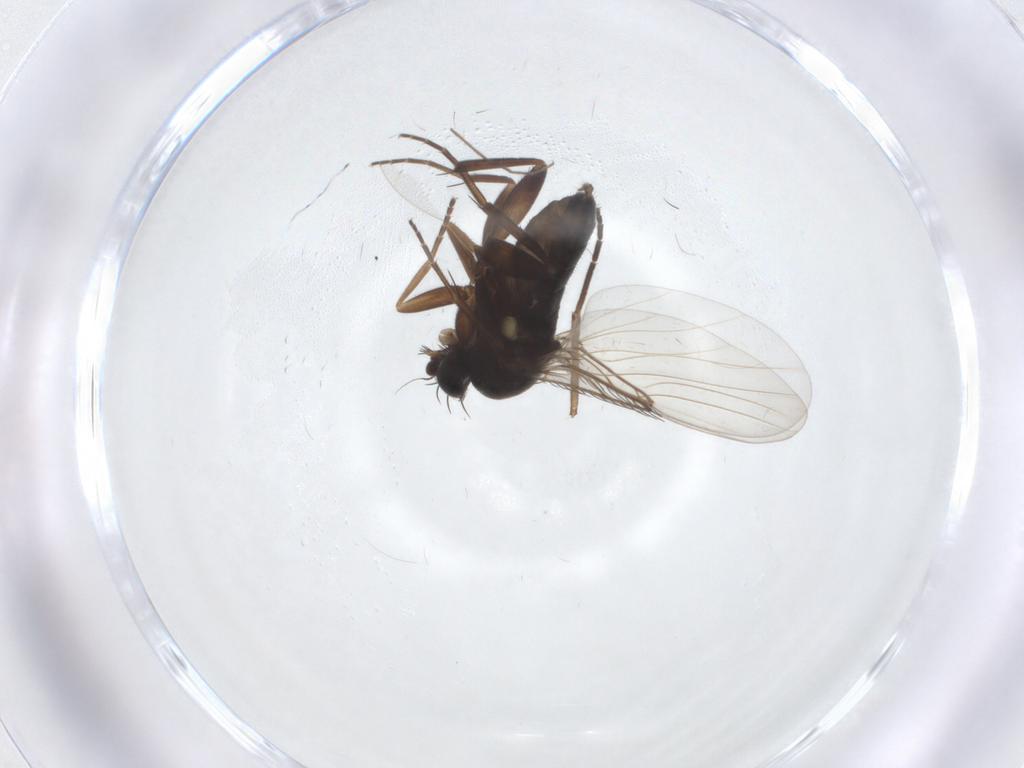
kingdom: Animalia
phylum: Arthropoda
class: Insecta
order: Diptera
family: Phoridae
